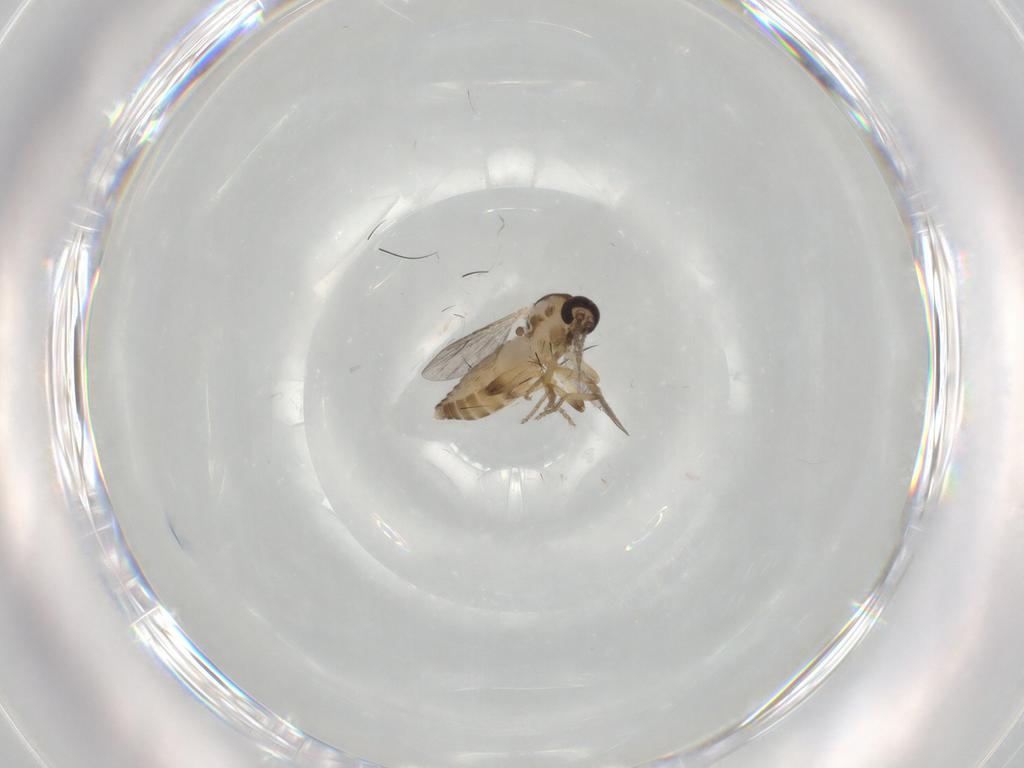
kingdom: Animalia
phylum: Arthropoda
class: Insecta
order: Diptera
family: Ceratopogonidae
